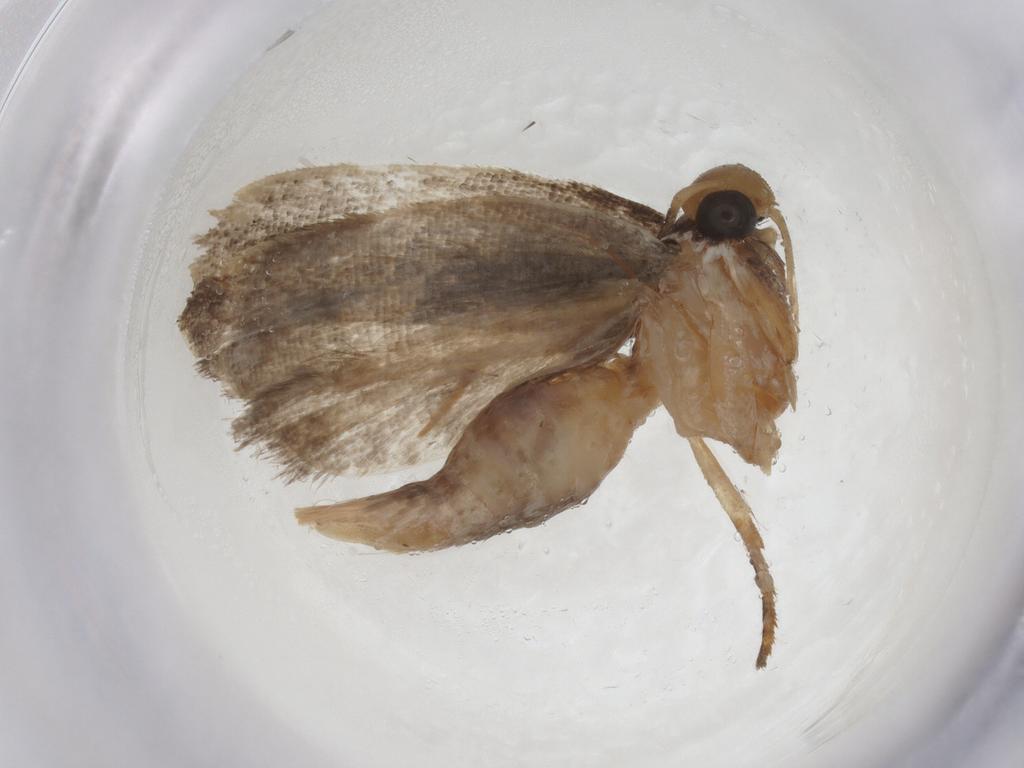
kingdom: Animalia
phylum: Arthropoda
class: Insecta
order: Lepidoptera
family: Gelechiidae
